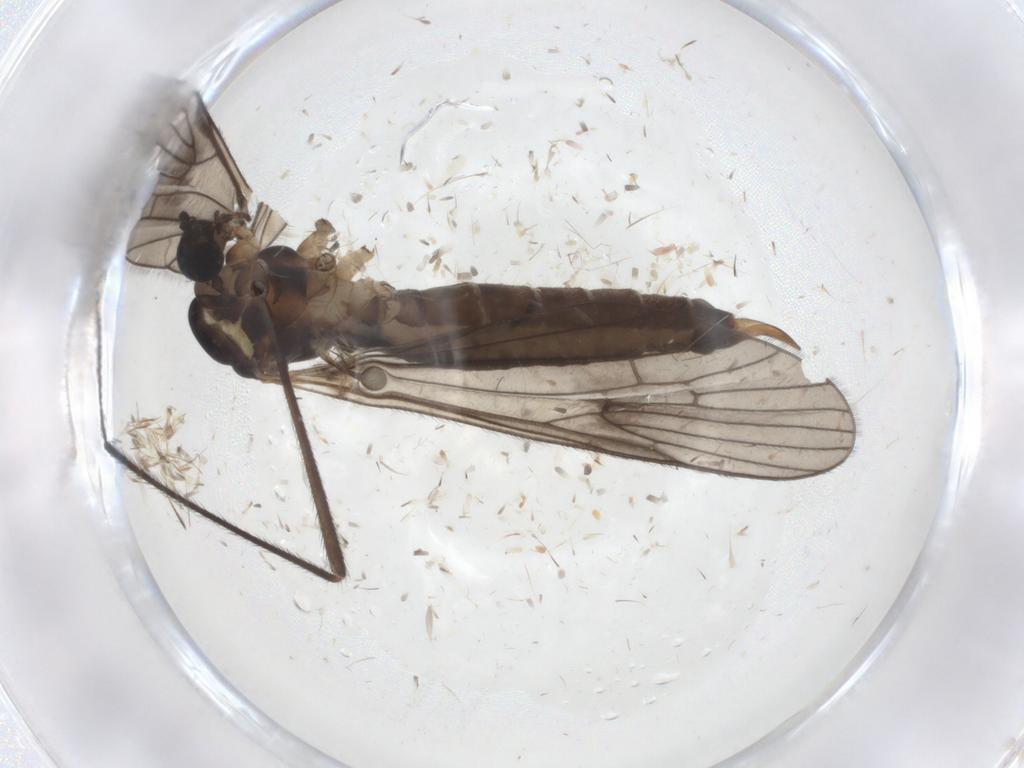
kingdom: Animalia
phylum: Arthropoda
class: Insecta
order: Diptera
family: Limoniidae
